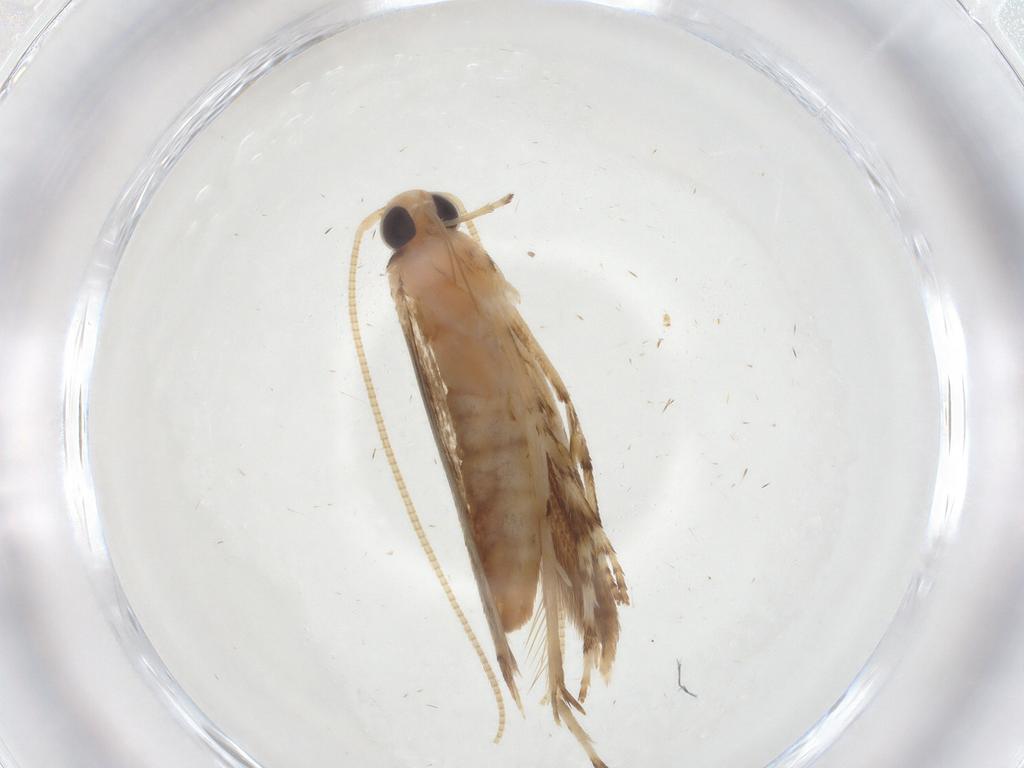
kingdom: Animalia
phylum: Arthropoda
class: Insecta
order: Lepidoptera
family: Gracillariidae
